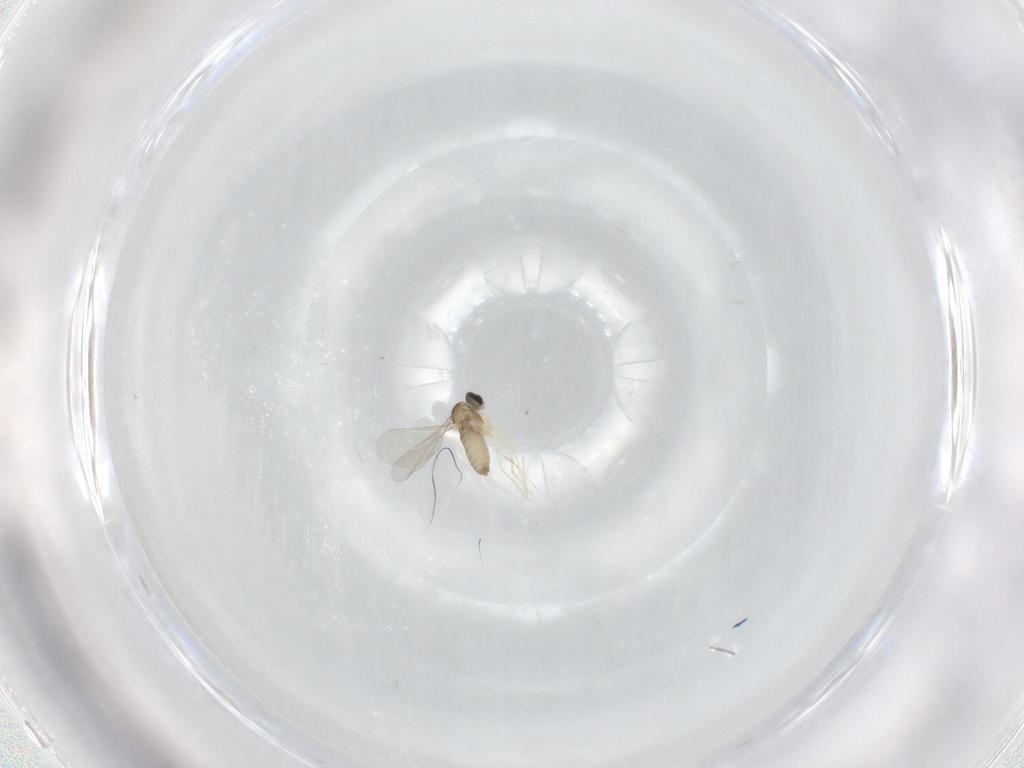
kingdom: Animalia
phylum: Arthropoda
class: Insecta
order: Diptera
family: Cecidomyiidae
